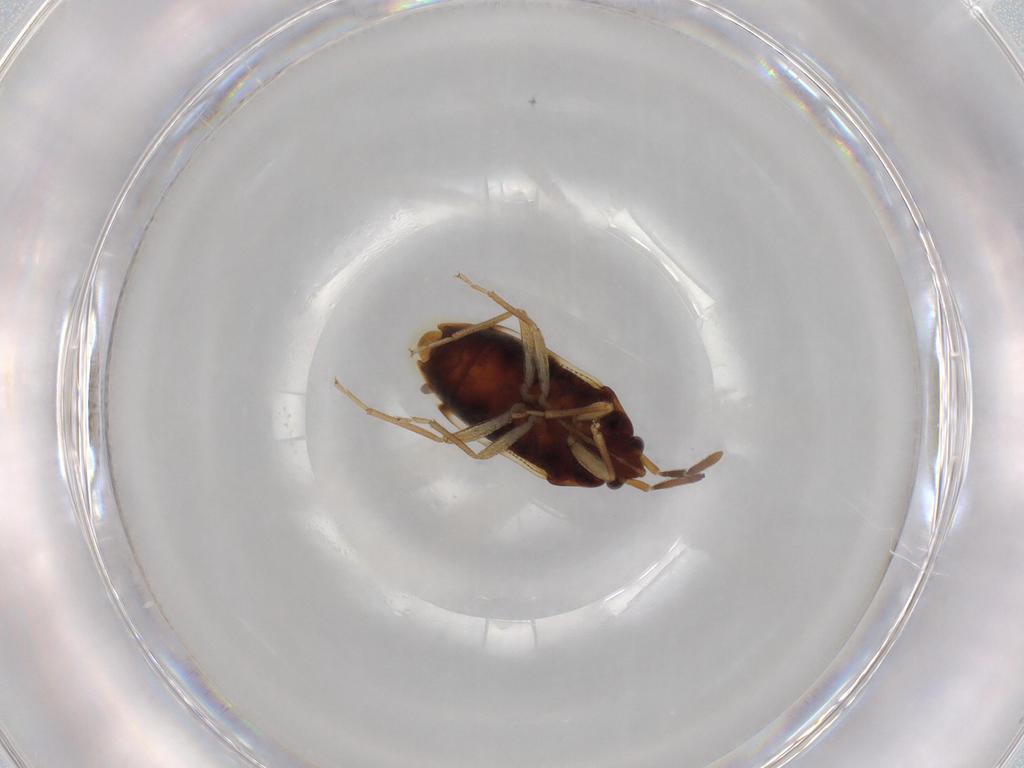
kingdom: Animalia
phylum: Arthropoda
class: Insecta
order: Hemiptera
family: Rhyparochromidae
